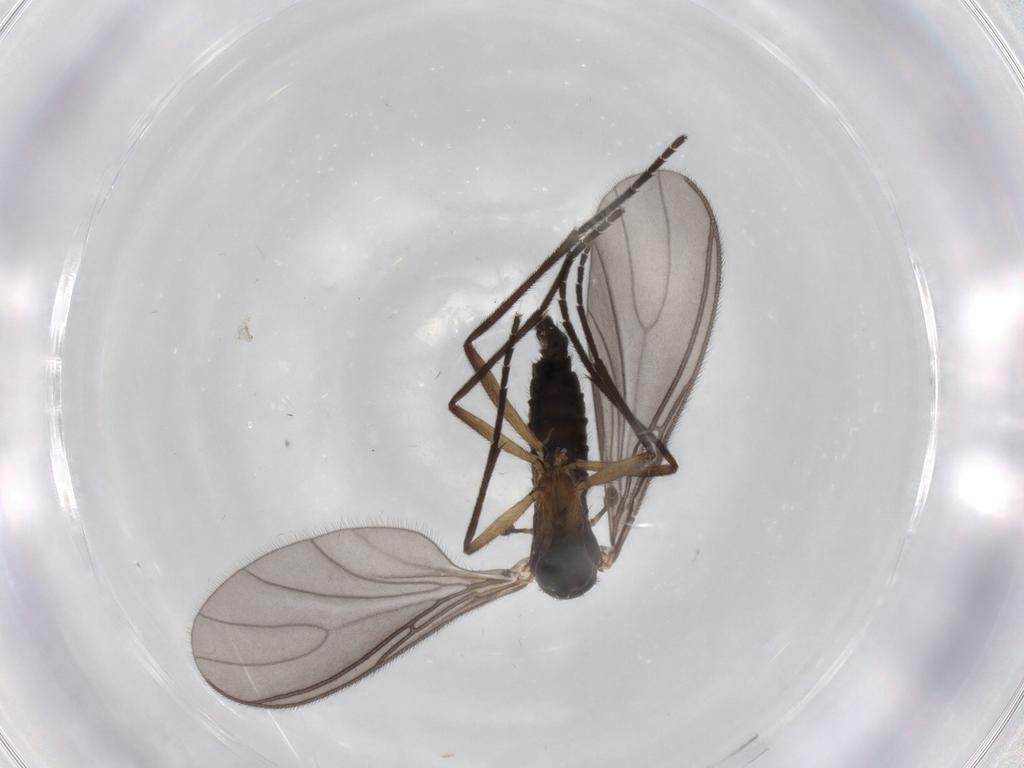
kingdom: Animalia
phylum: Arthropoda
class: Insecta
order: Diptera
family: Sciaridae
